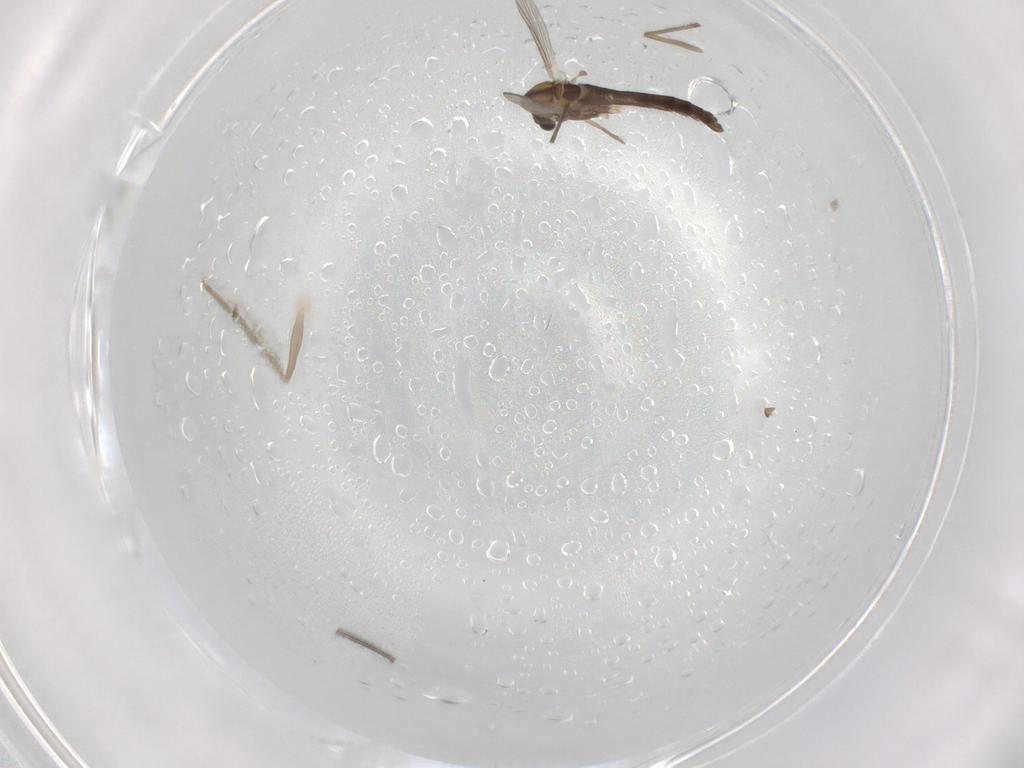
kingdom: Animalia
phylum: Arthropoda
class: Insecta
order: Diptera
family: Chironomidae
